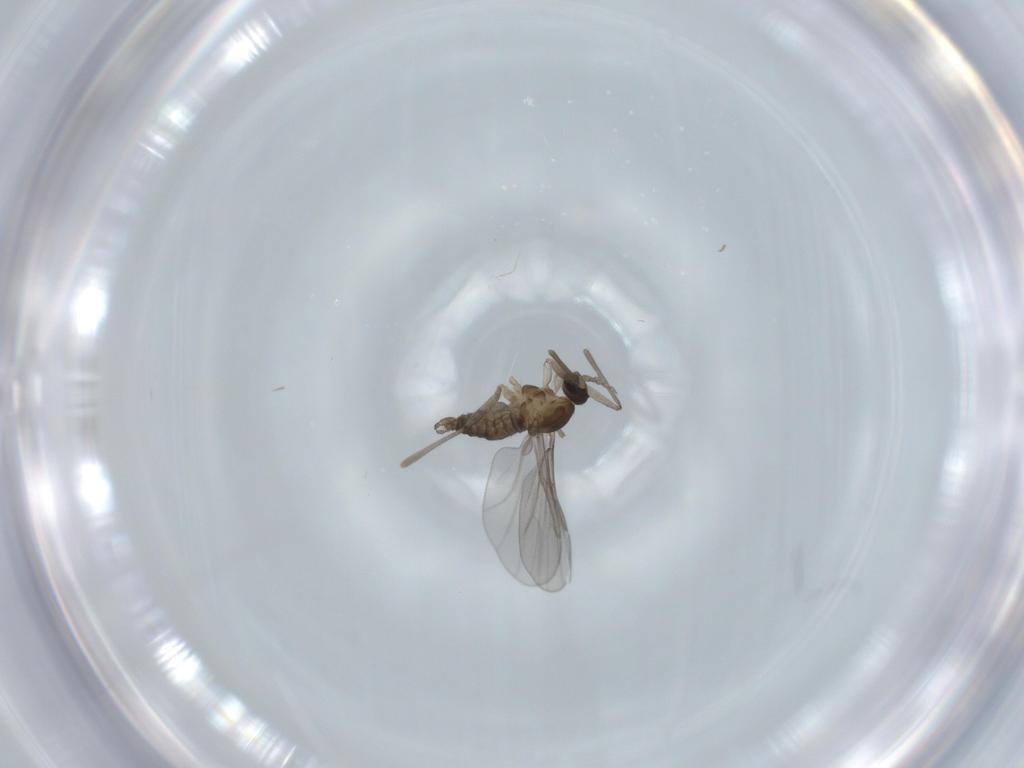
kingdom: Animalia
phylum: Arthropoda
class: Insecta
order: Diptera
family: Cecidomyiidae
